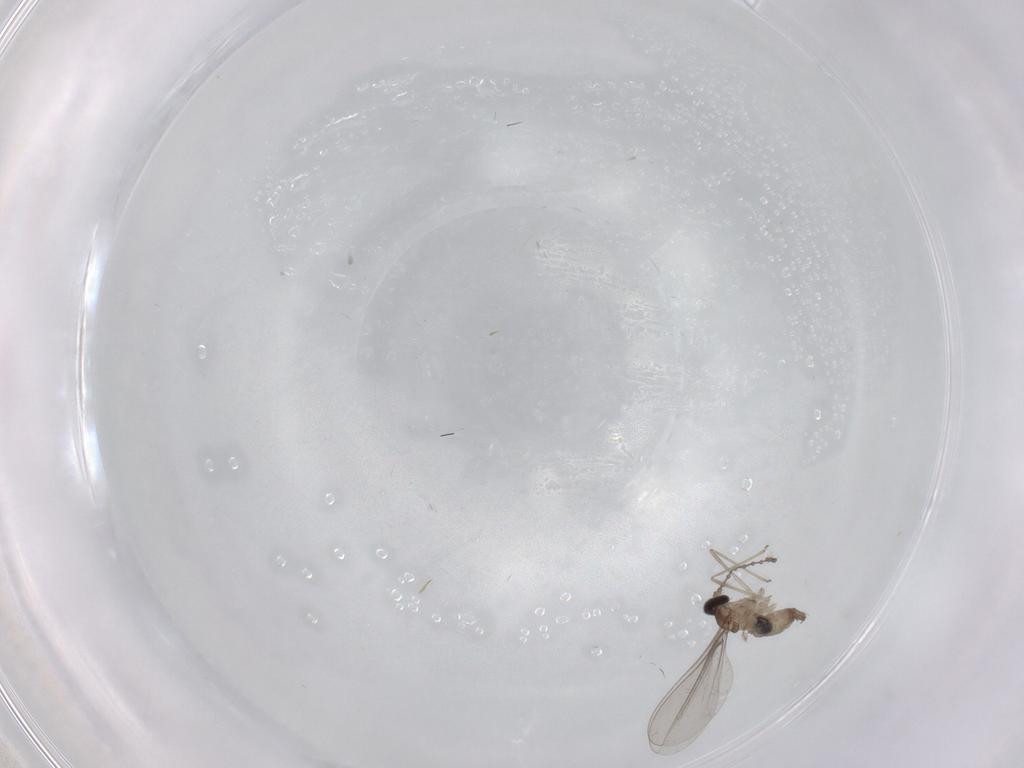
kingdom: Animalia
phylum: Arthropoda
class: Insecta
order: Diptera
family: Cecidomyiidae
